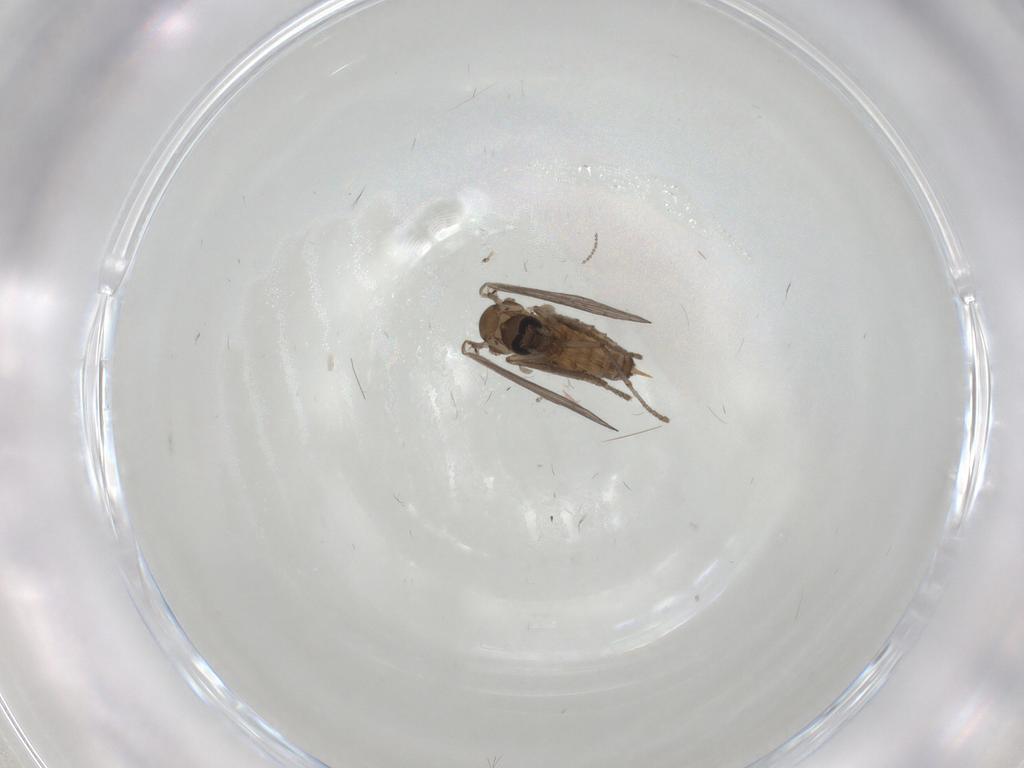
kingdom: Animalia
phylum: Arthropoda
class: Insecta
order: Diptera
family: Psychodidae
